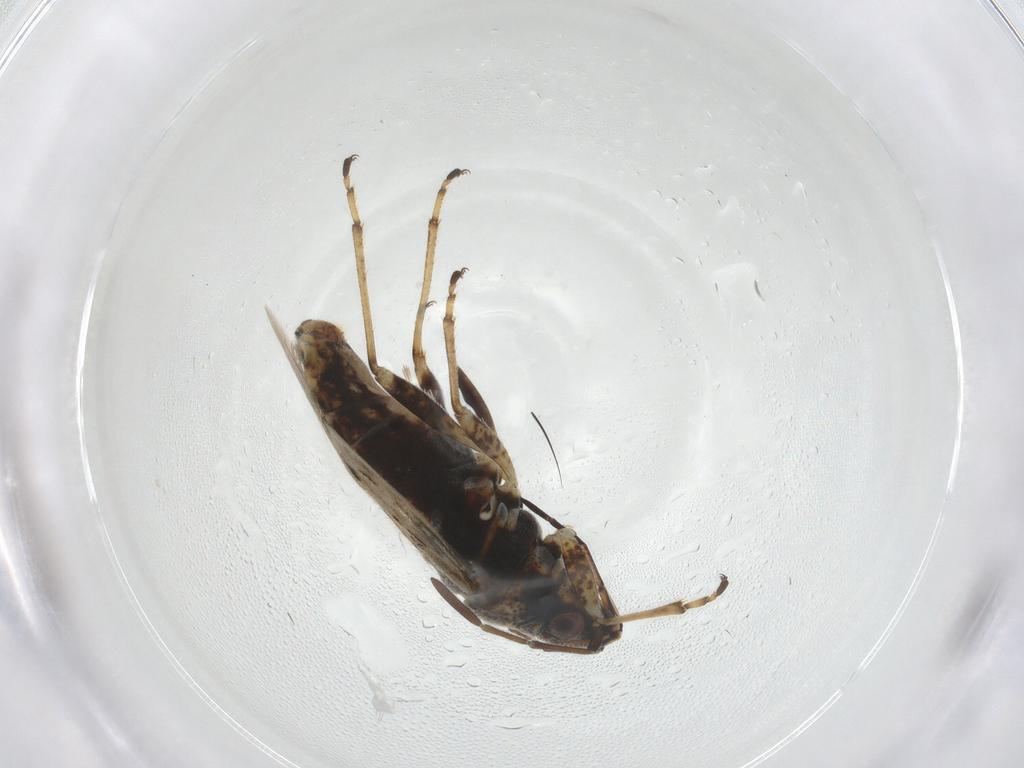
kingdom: Animalia
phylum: Arthropoda
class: Insecta
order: Hemiptera
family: Lygaeidae
